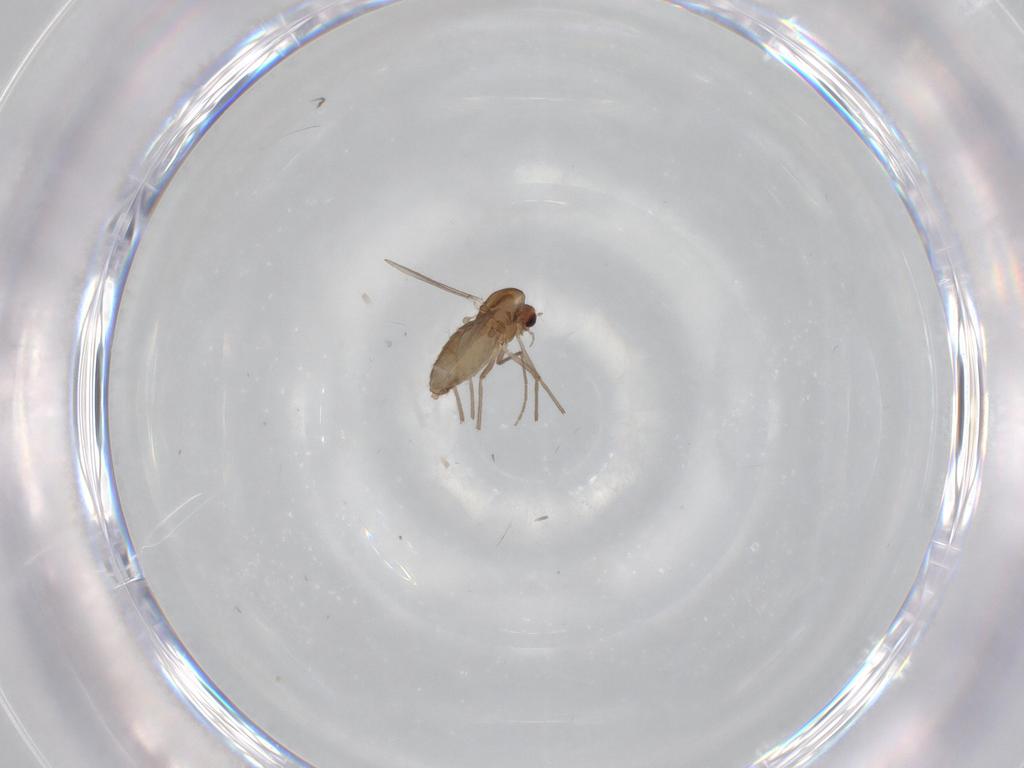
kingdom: Animalia
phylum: Arthropoda
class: Insecta
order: Diptera
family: Chironomidae
